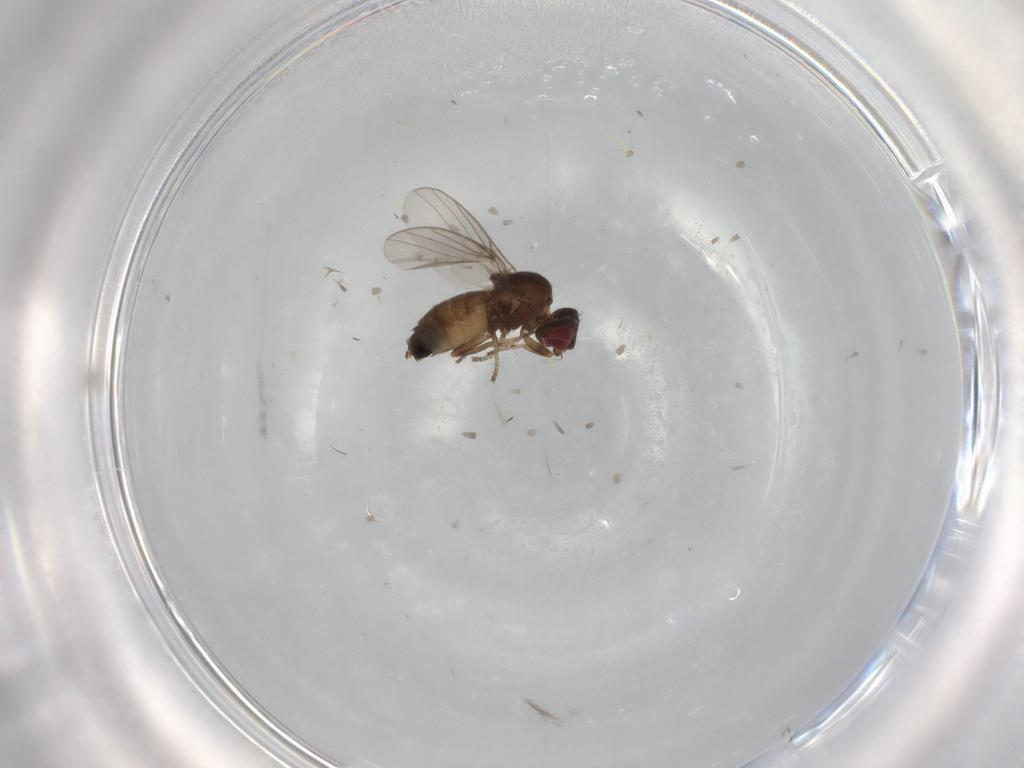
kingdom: Animalia
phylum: Arthropoda
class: Insecta
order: Diptera
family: Chloropidae
